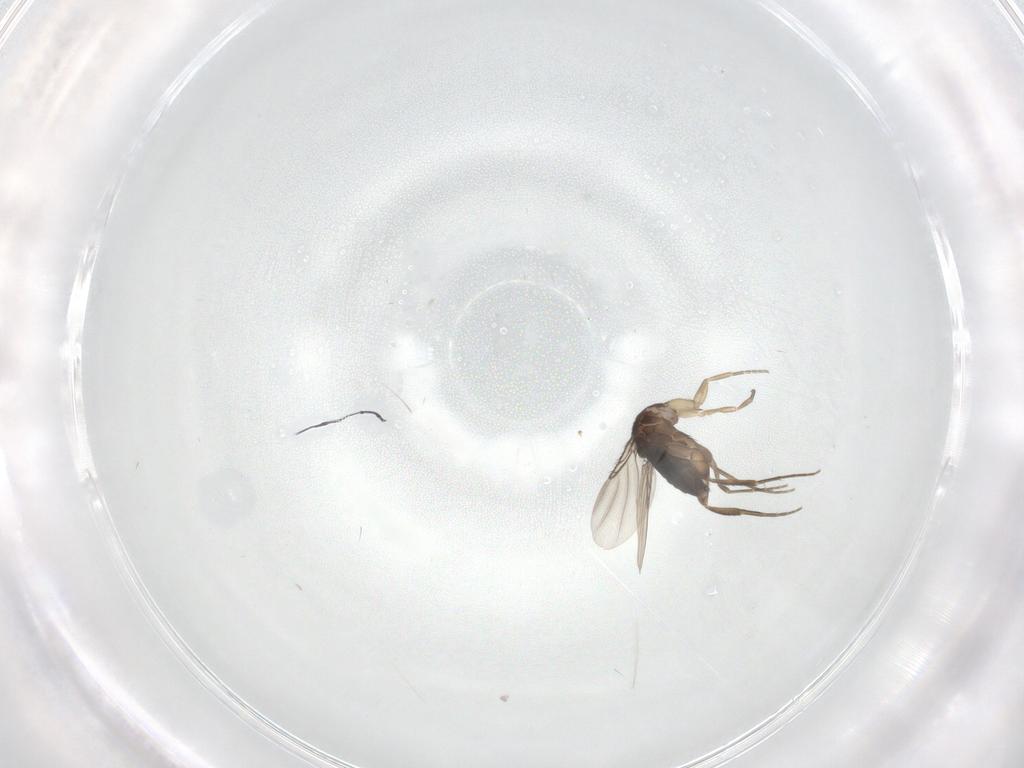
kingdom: Animalia
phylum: Arthropoda
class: Insecta
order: Diptera
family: Phoridae
